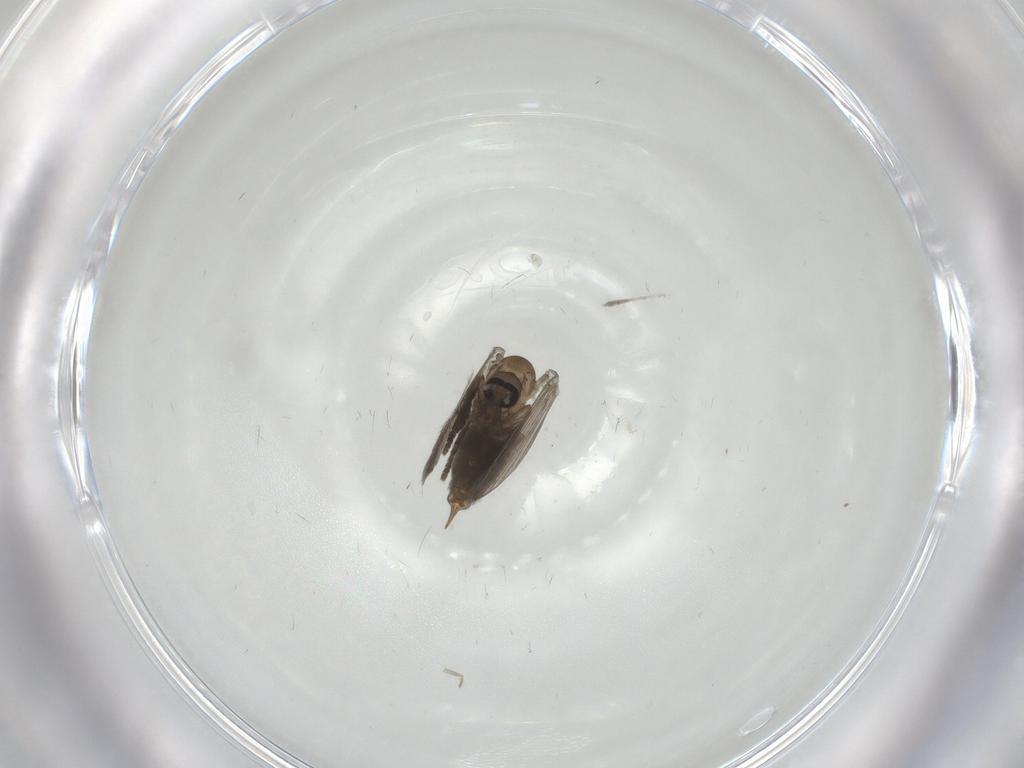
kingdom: Animalia
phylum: Arthropoda
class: Insecta
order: Diptera
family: Chironomidae
